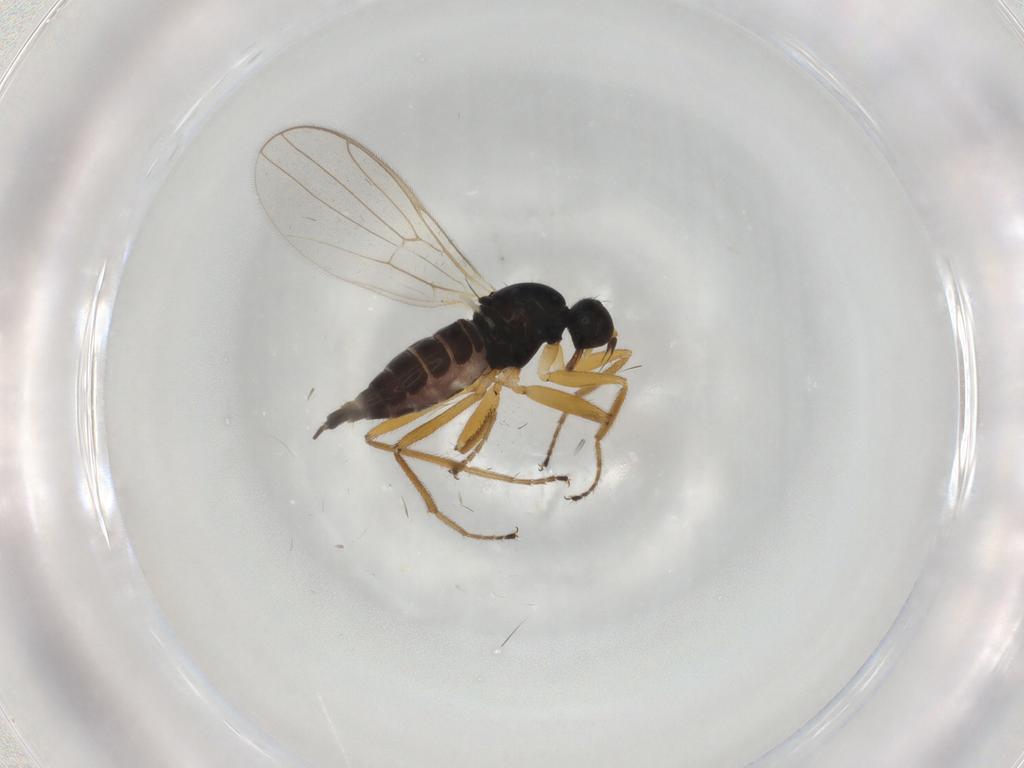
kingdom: Animalia
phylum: Arthropoda
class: Insecta
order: Diptera
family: Hybotidae
